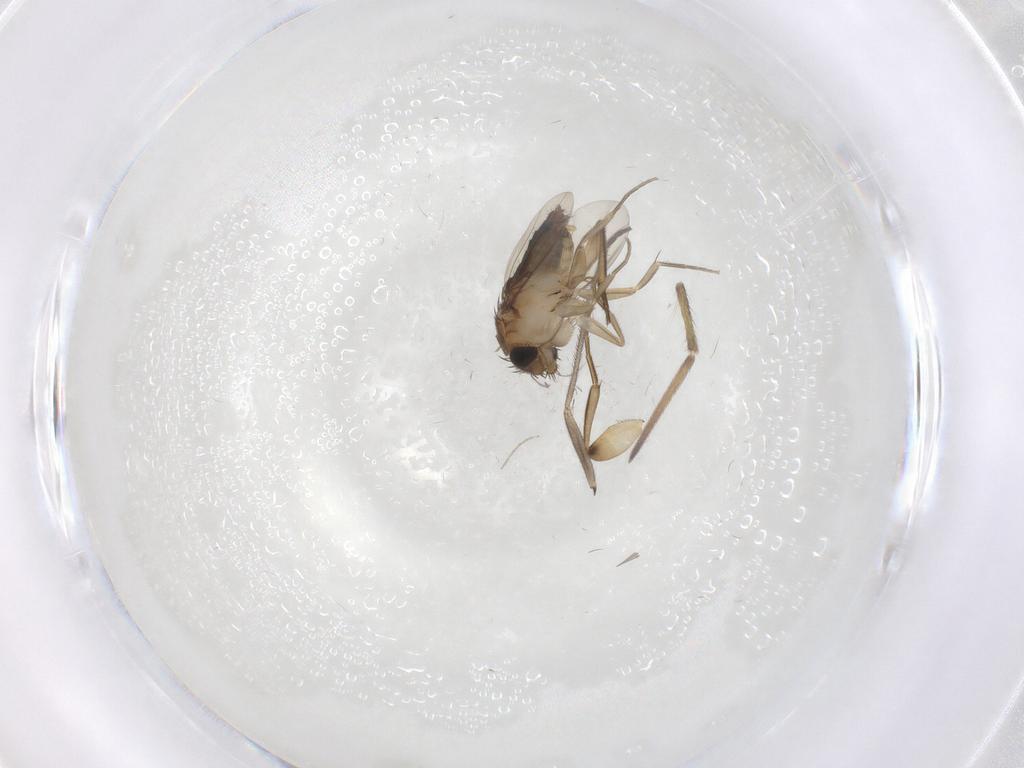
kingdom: Animalia
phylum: Arthropoda
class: Insecta
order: Diptera
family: Phoridae
